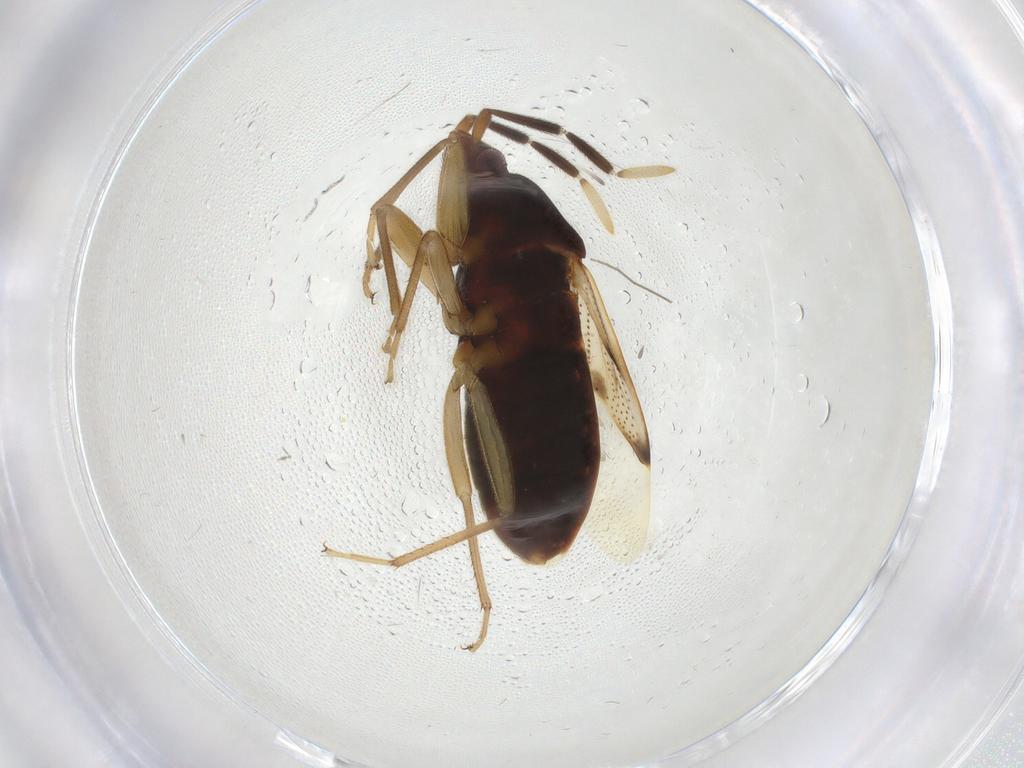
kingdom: Animalia
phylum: Arthropoda
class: Insecta
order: Hemiptera
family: Rhyparochromidae
